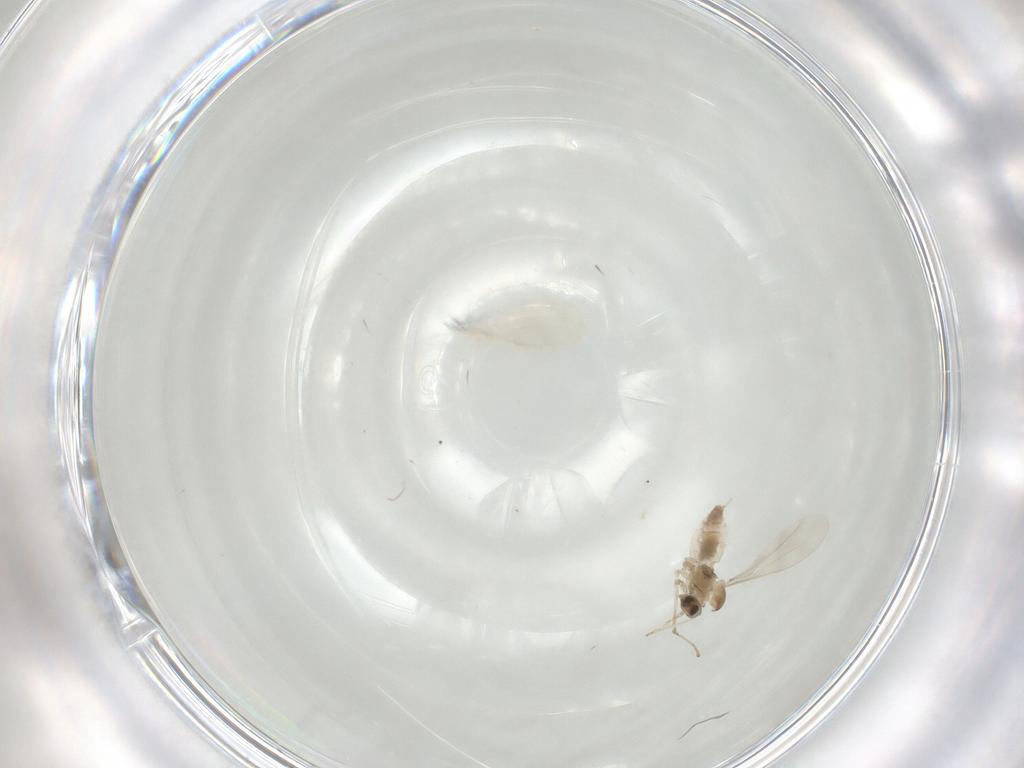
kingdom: Animalia
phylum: Arthropoda
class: Insecta
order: Diptera
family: Cecidomyiidae
